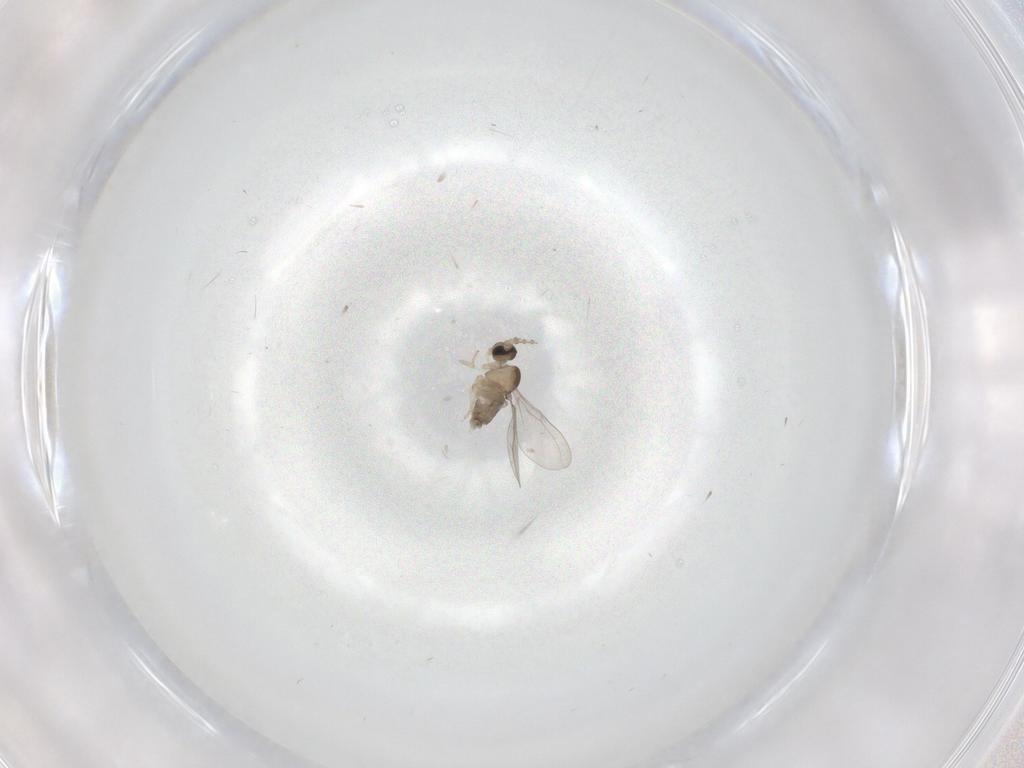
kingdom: Animalia
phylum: Arthropoda
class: Insecta
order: Diptera
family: Cecidomyiidae
